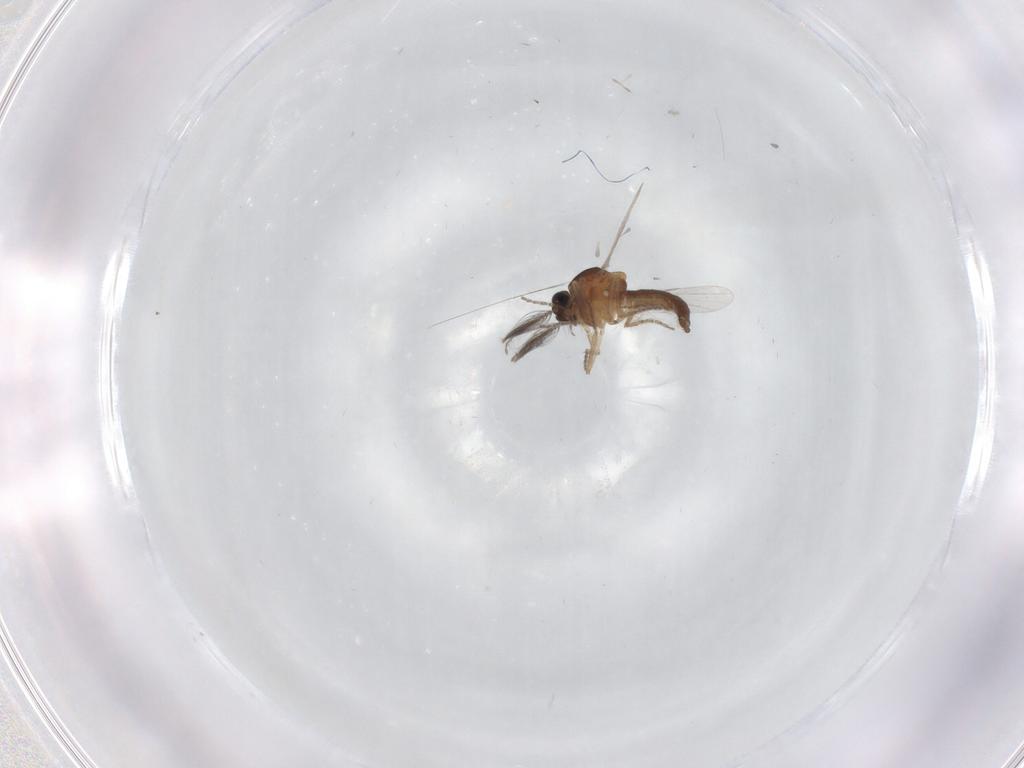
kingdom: Animalia
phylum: Arthropoda
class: Insecta
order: Diptera
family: Ceratopogonidae
